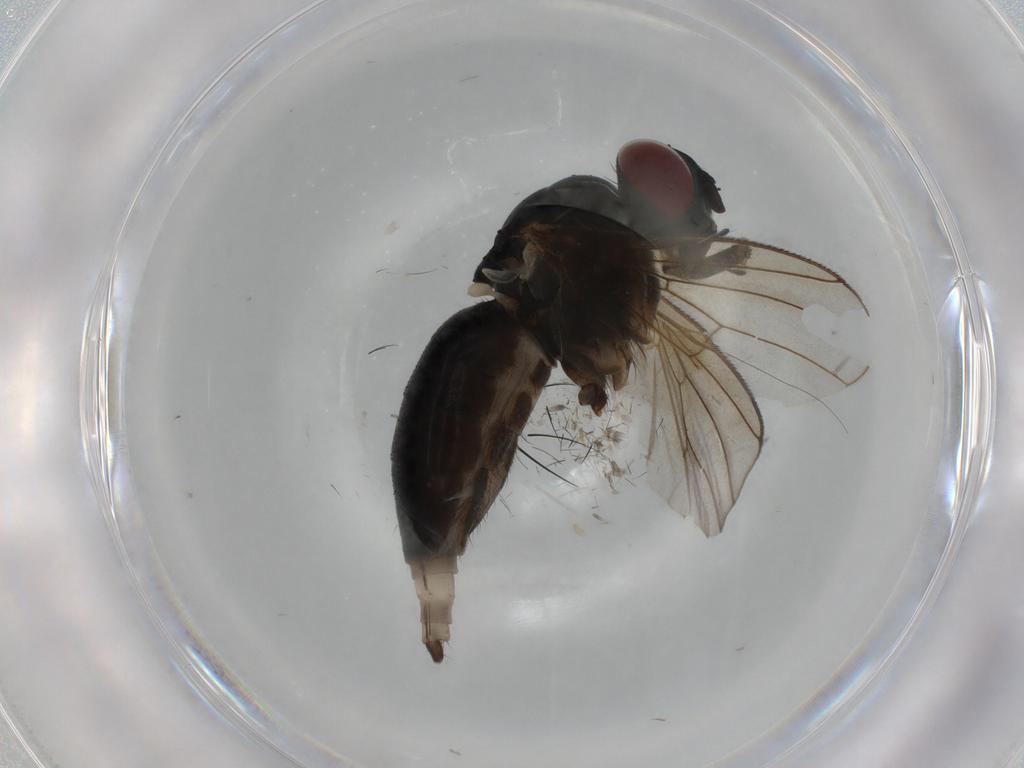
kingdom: Animalia
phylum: Arthropoda
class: Insecta
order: Diptera
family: Muscidae
